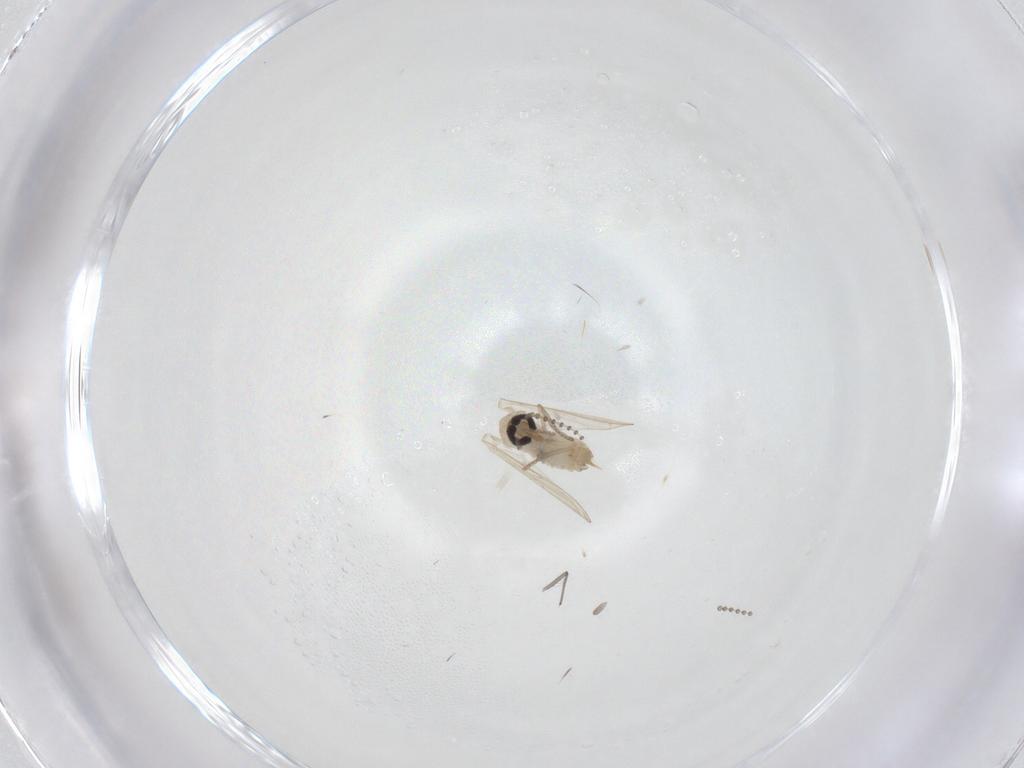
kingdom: Animalia
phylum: Arthropoda
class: Insecta
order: Diptera
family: Psychodidae
